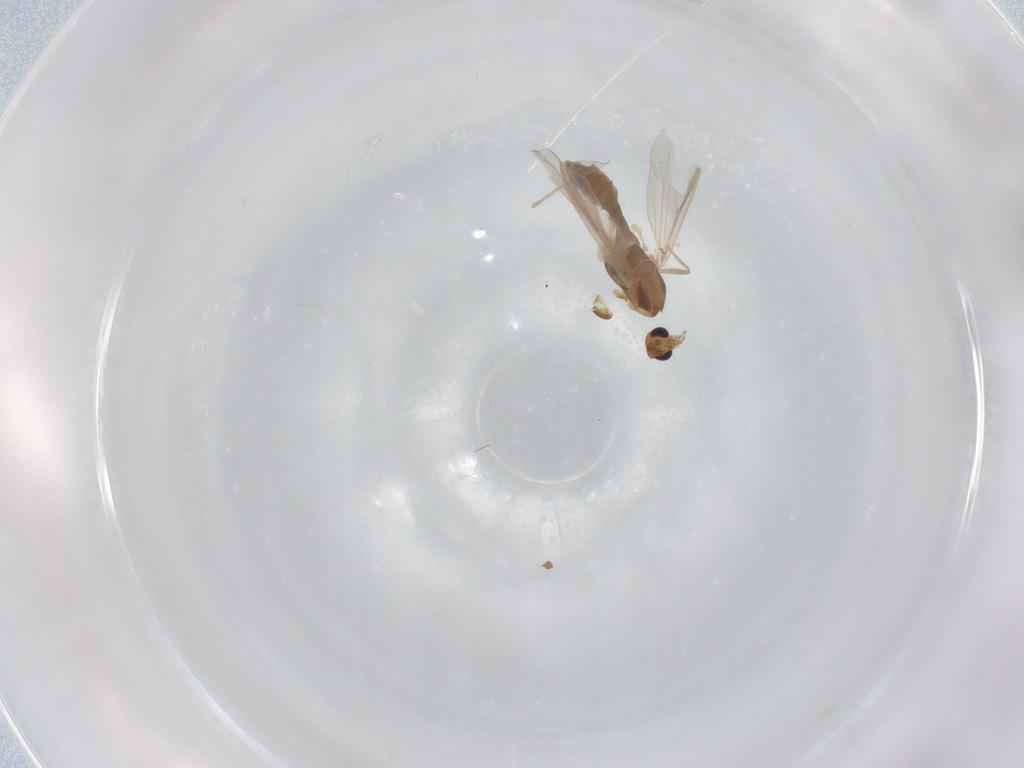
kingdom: Animalia
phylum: Arthropoda
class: Insecta
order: Diptera
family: Chironomidae
